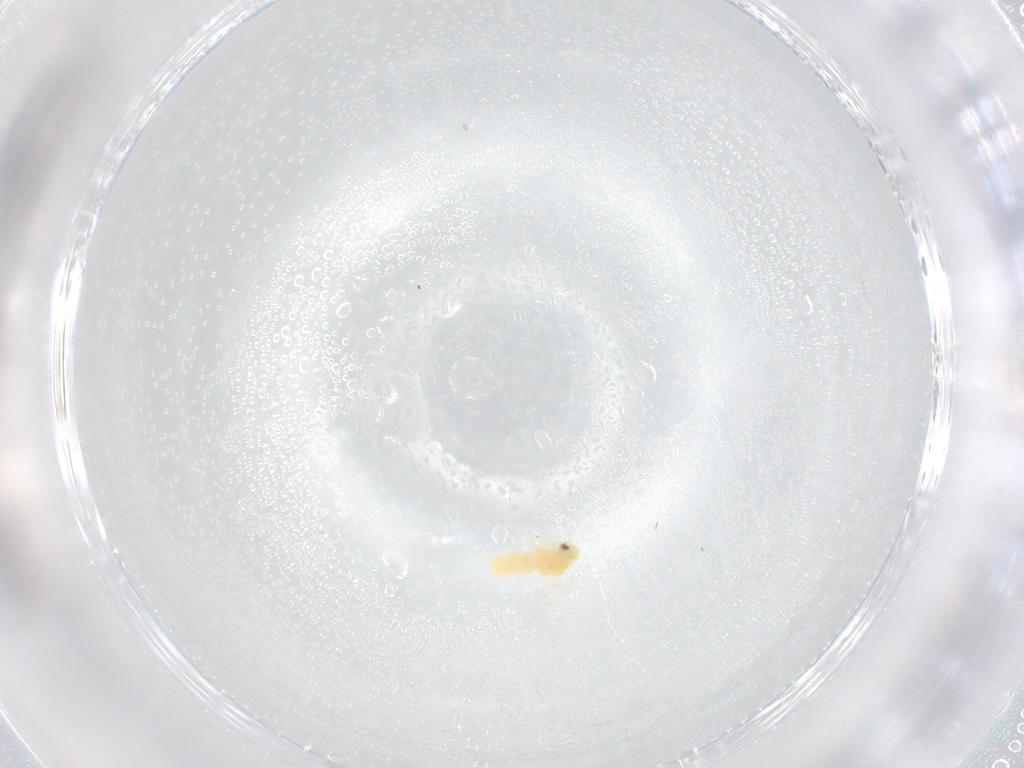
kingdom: Animalia
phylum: Arthropoda
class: Insecta
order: Hemiptera
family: Aleyrodidae
